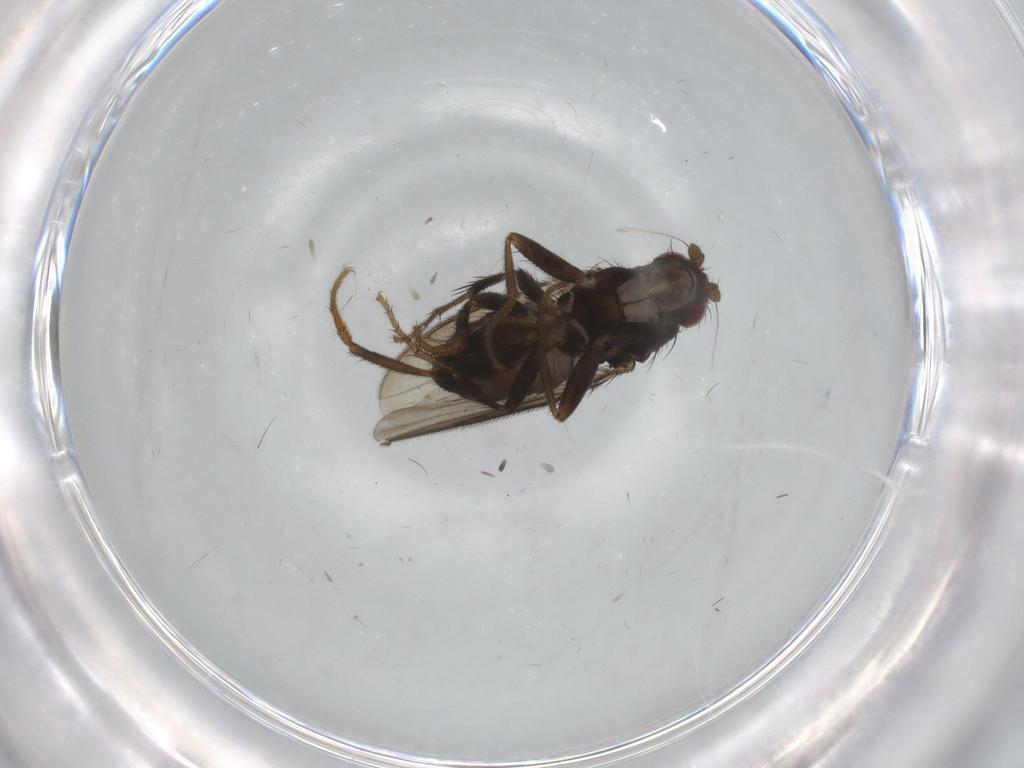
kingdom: Animalia
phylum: Arthropoda
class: Insecta
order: Diptera
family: Sphaeroceridae
